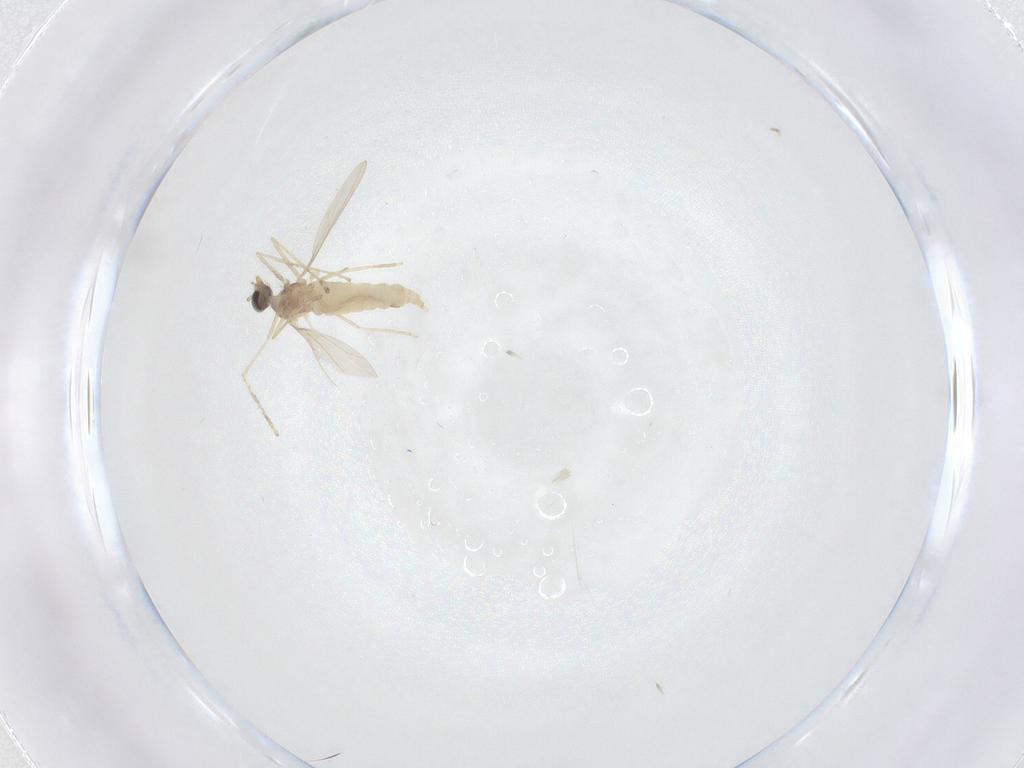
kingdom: Animalia
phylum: Arthropoda
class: Insecta
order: Diptera
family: Cecidomyiidae
